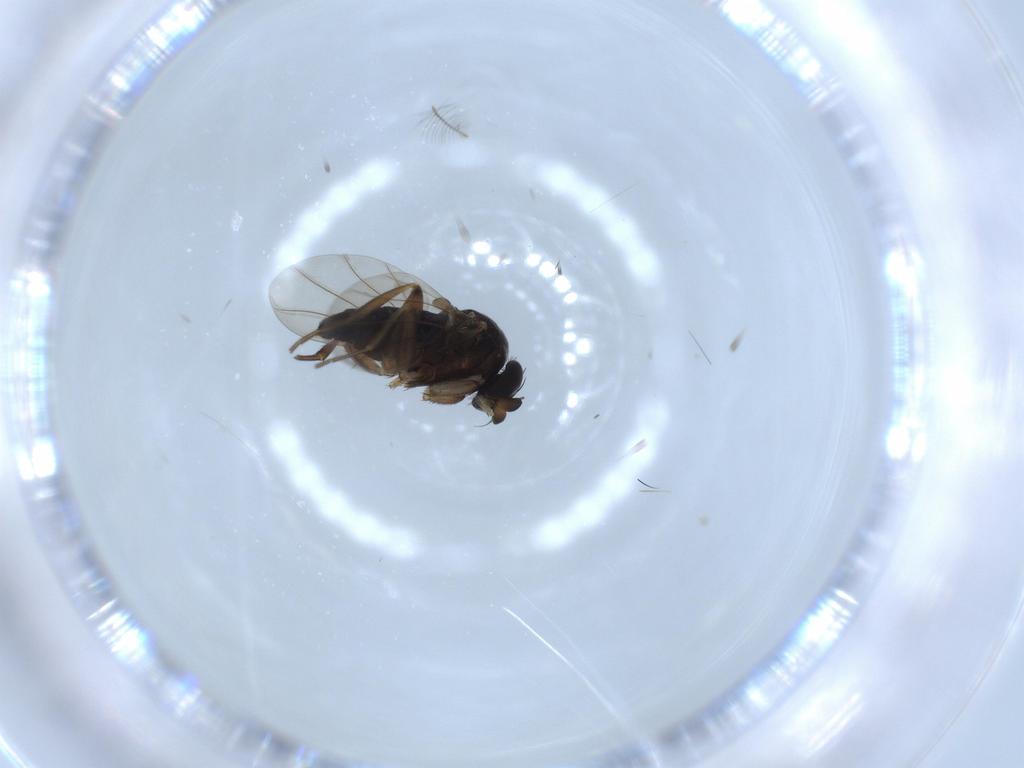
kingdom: Animalia
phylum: Arthropoda
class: Insecta
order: Diptera
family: Phoridae
